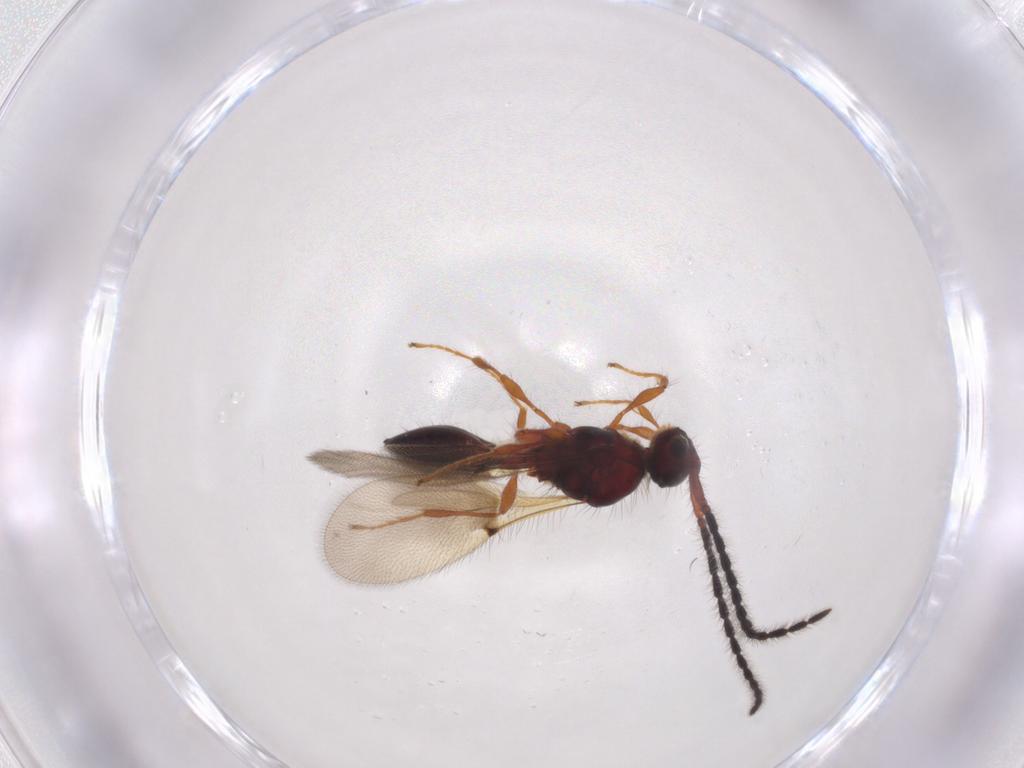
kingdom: Animalia
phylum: Arthropoda
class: Insecta
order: Hymenoptera
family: Diapriidae
